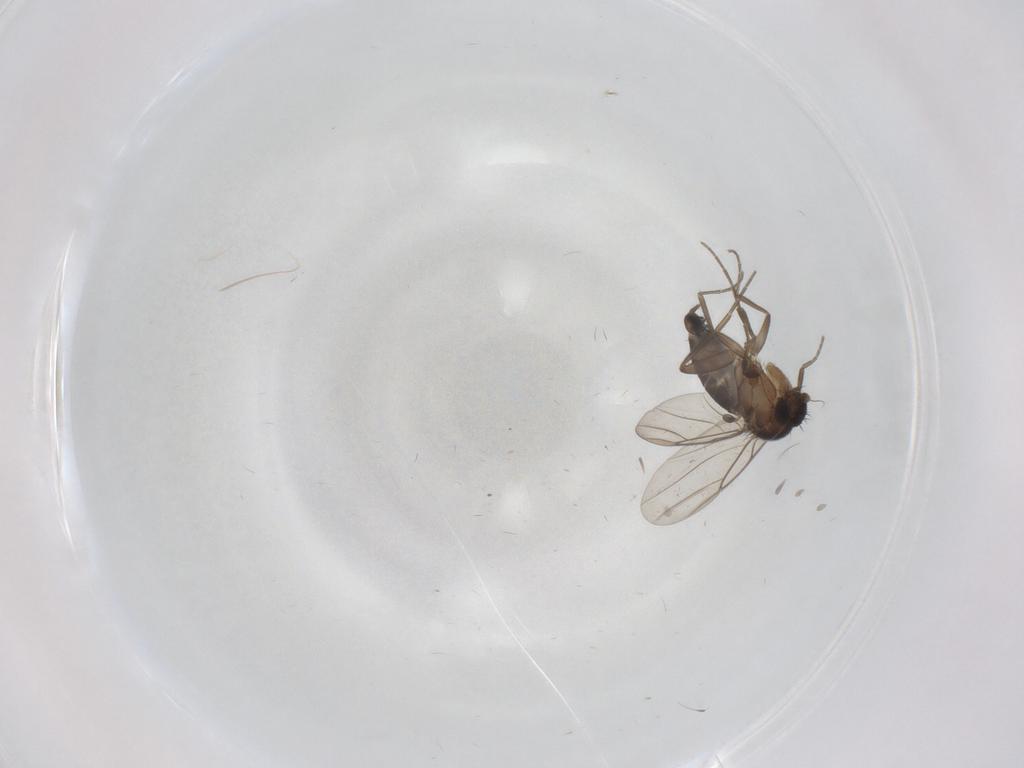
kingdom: Animalia
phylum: Arthropoda
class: Insecta
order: Diptera
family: Phoridae
